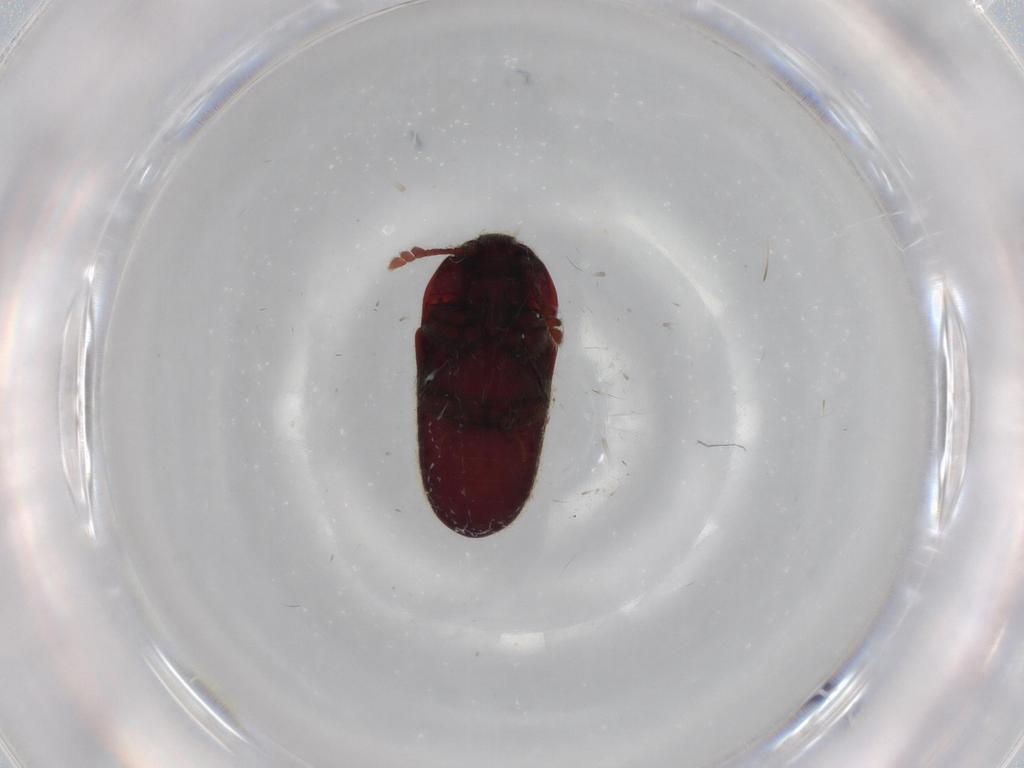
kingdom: Animalia
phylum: Arthropoda
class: Insecta
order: Coleoptera
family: Throscidae
